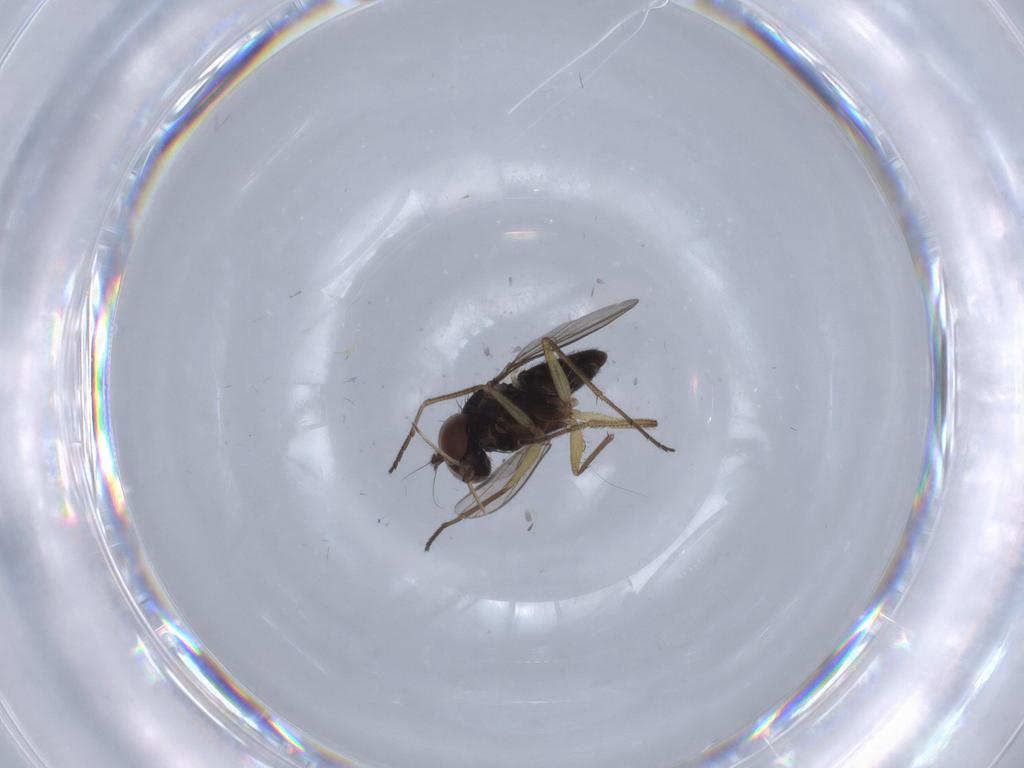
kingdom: Animalia
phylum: Arthropoda
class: Insecta
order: Diptera
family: Dolichopodidae
